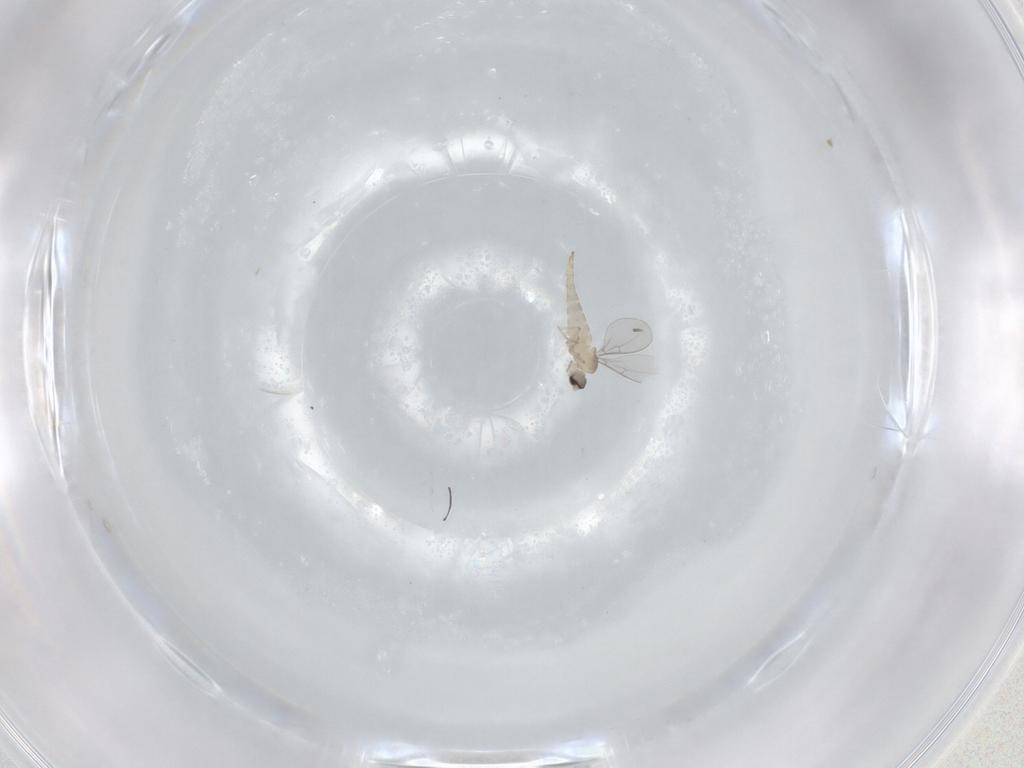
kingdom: Animalia
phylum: Arthropoda
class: Insecta
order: Diptera
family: Cecidomyiidae
